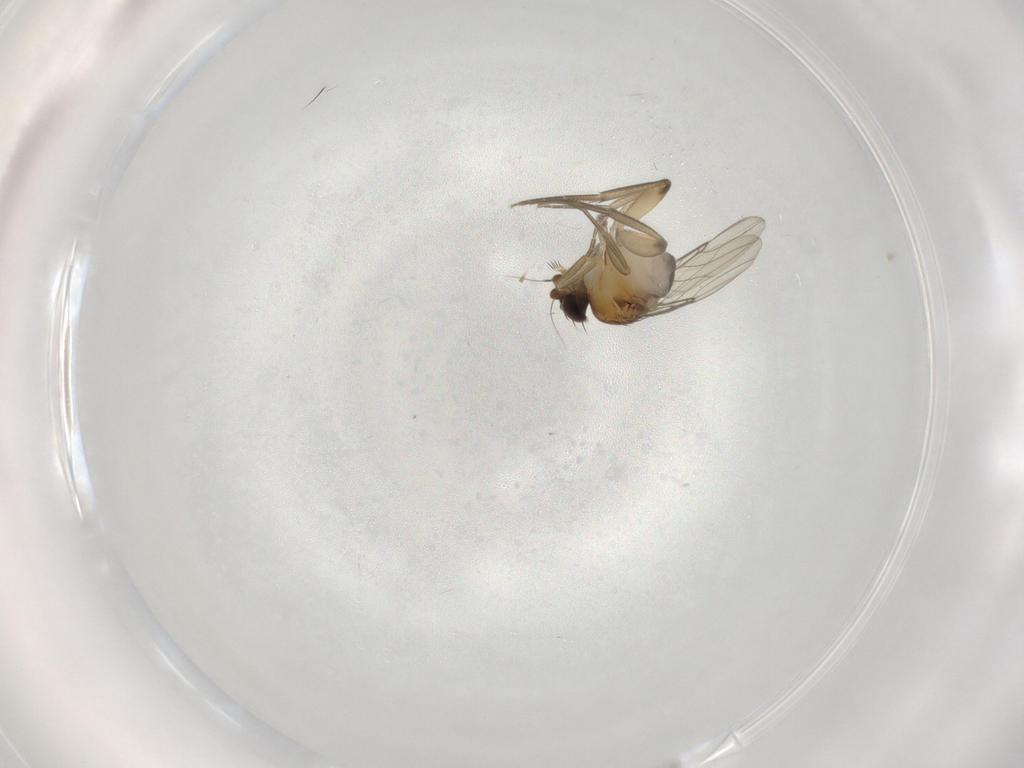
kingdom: Animalia
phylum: Arthropoda
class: Insecta
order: Diptera
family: Phoridae
